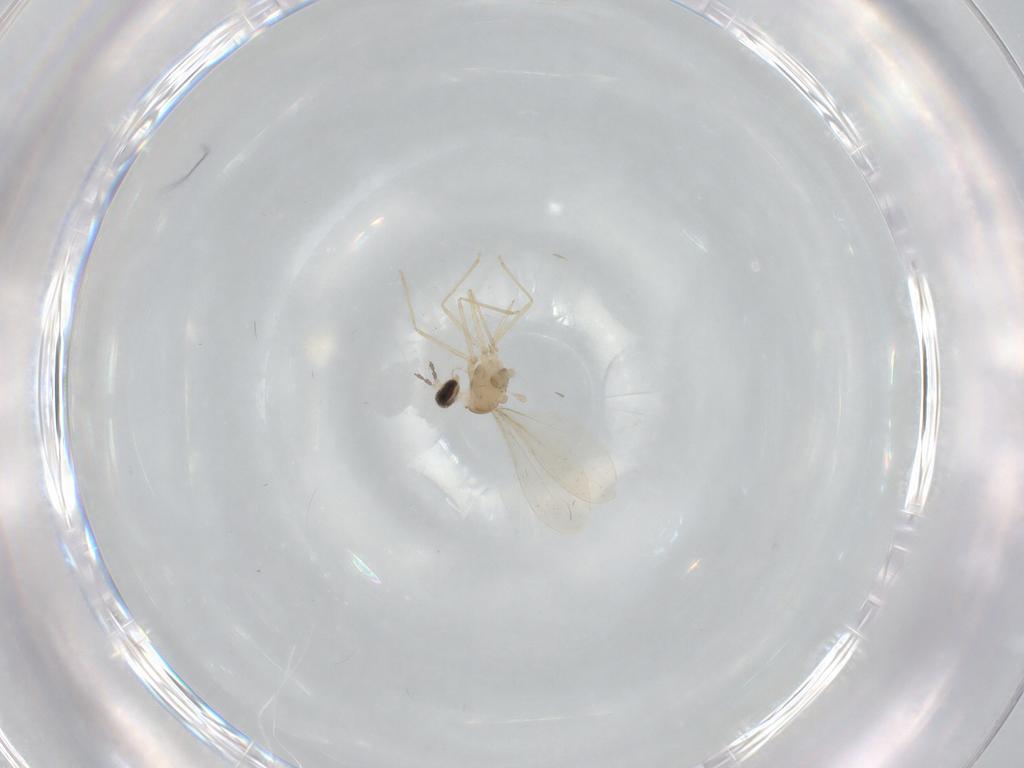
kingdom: Animalia
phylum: Arthropoda
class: Insecta
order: Diptera
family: Cecidomyiidae
